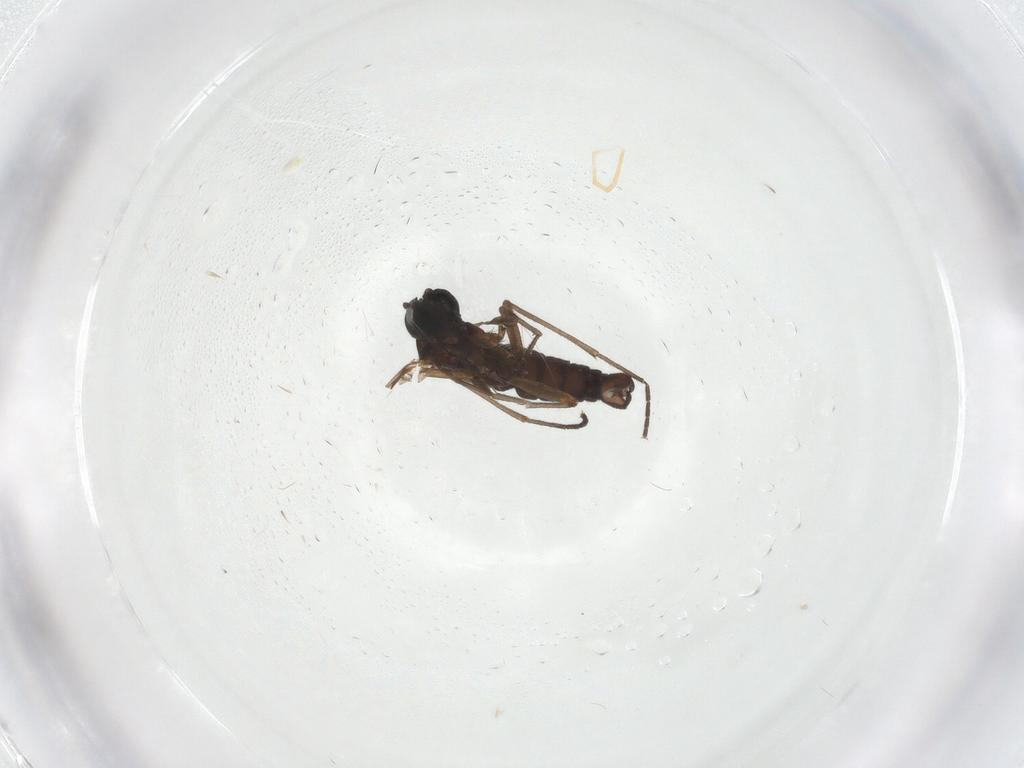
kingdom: Animalia
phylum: Arthropoda
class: Insecta
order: Diptera
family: Sciaridae
